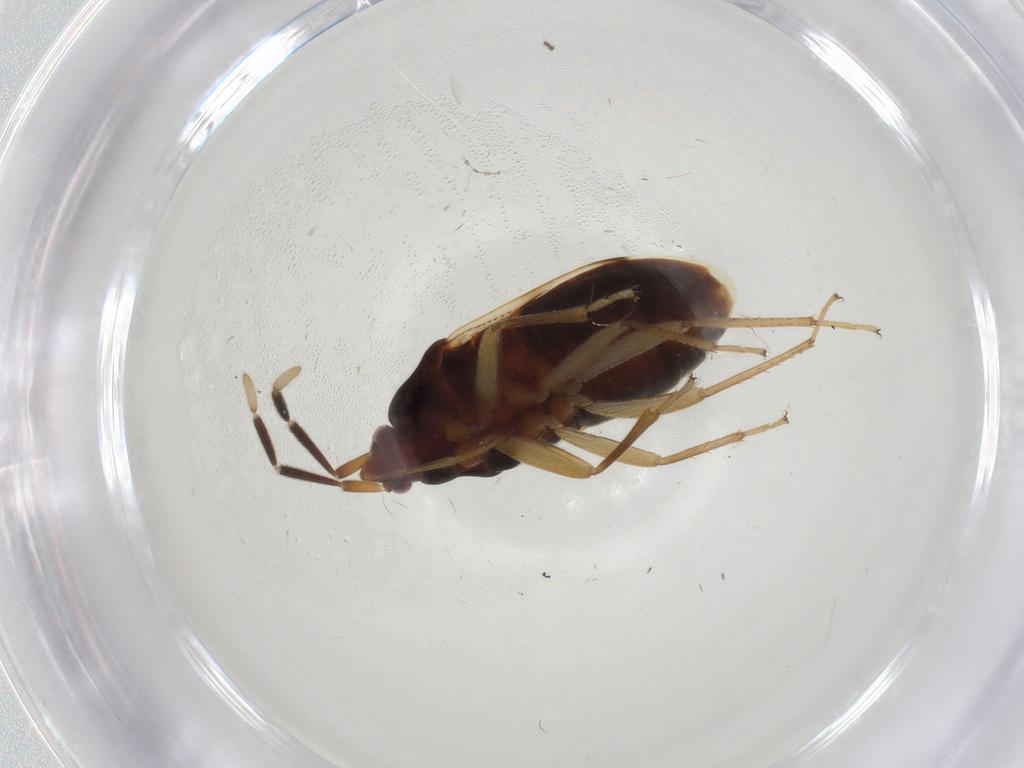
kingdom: Animalia
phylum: Arthropoda
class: Insecta
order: Hemiptera
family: Rhyparochromidae
